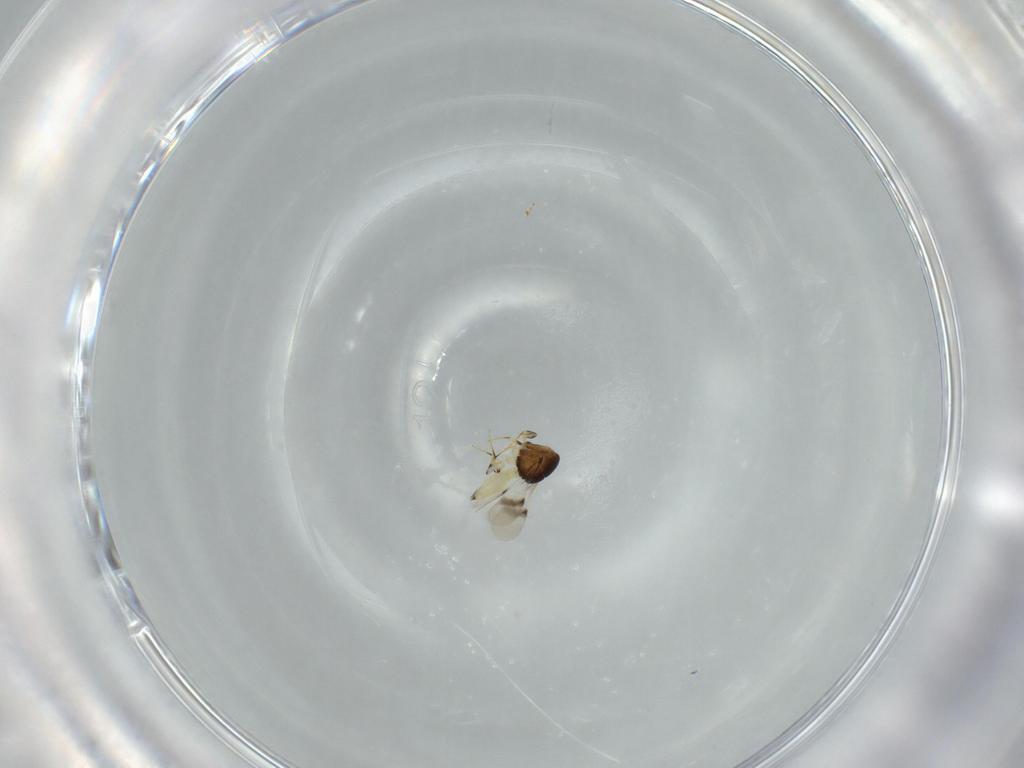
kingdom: Animalia
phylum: Arthropoda
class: Insecta
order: Hymenoptera
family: Scelionidae
